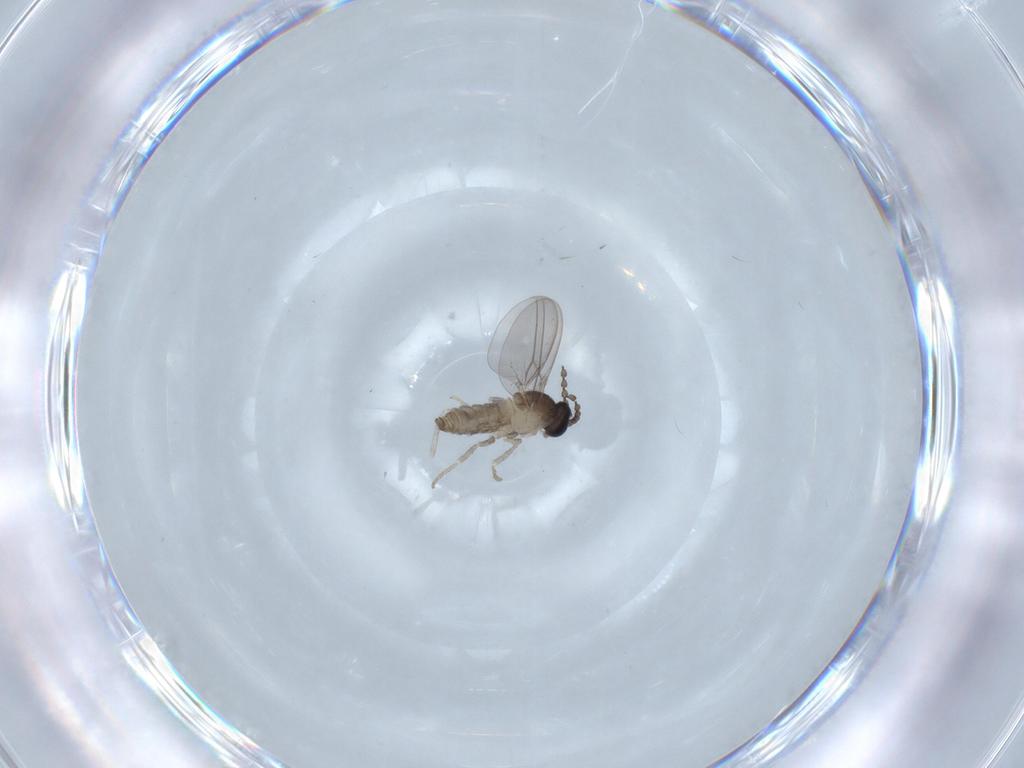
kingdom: Animalia
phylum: Arthropoda
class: Insecta
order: Diptera
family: Cecidomyiidae
